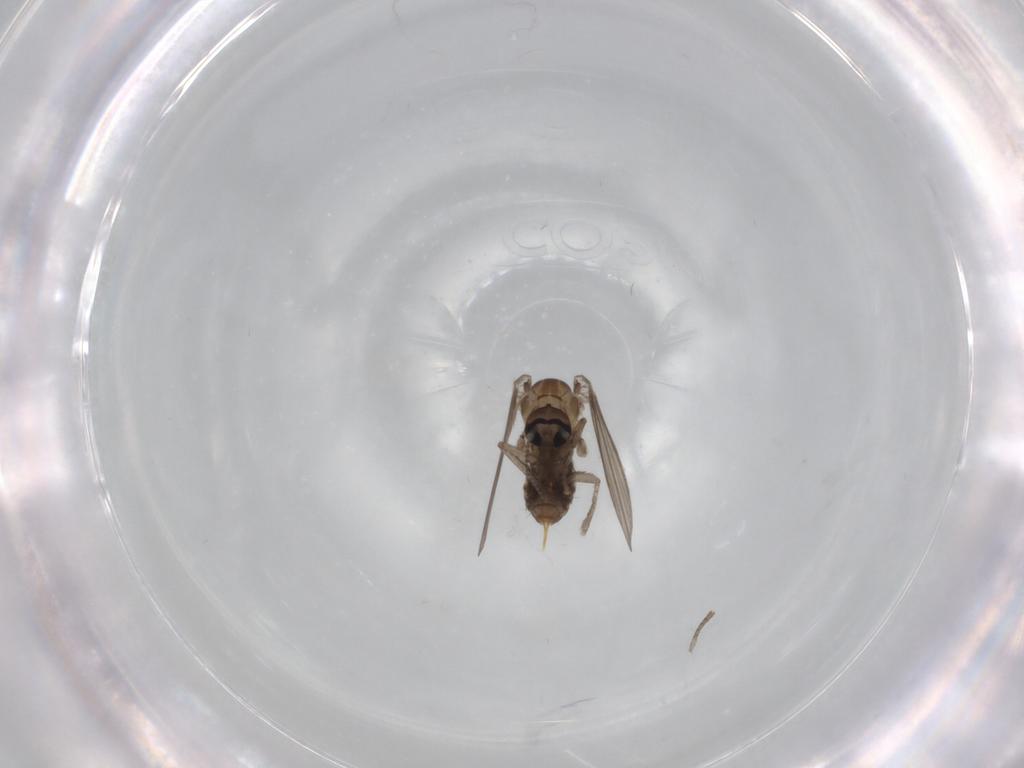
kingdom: Animalia
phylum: Arthropoda
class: Insecta
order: Diptera
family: Psychodidae
